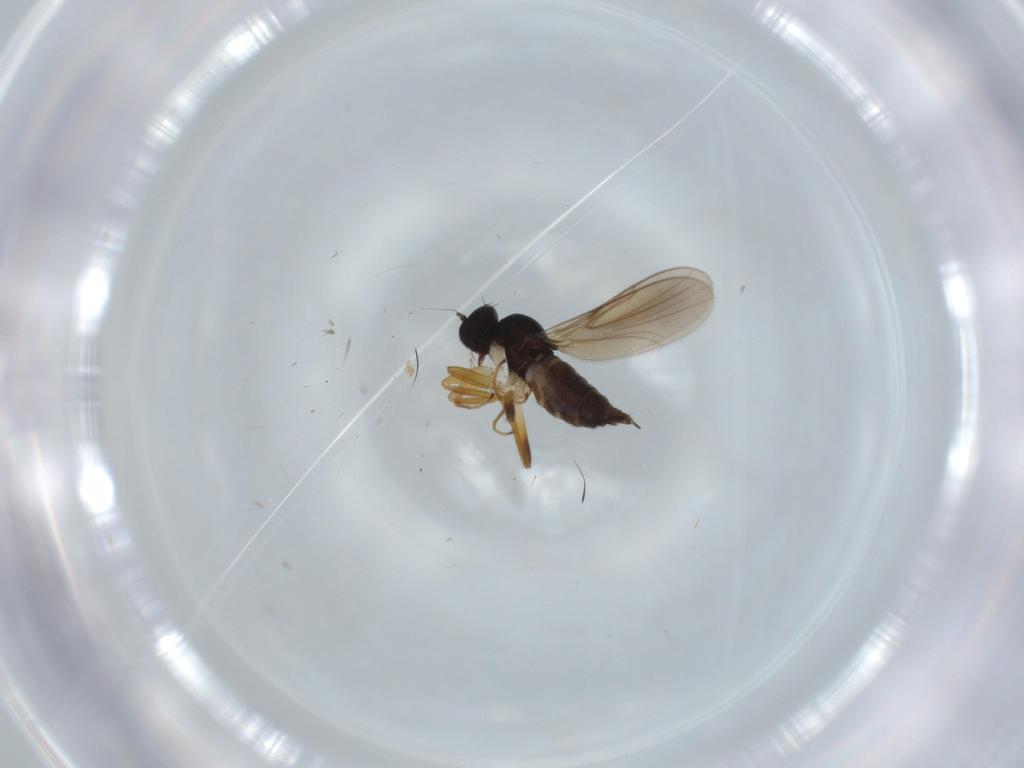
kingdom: Animalia
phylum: Arthropoda
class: Insecta
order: Diptera
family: Hybotidae
